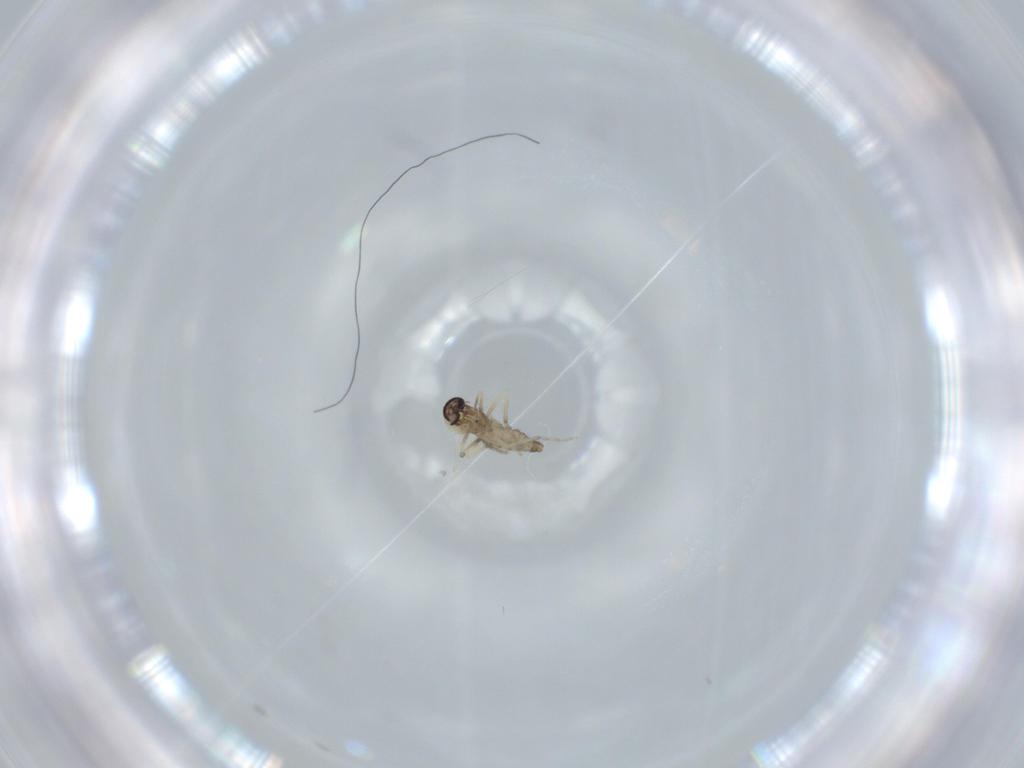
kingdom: Animalia
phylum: Arthropoda
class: Insecta
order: Diptera
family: Ceratopogonidae
